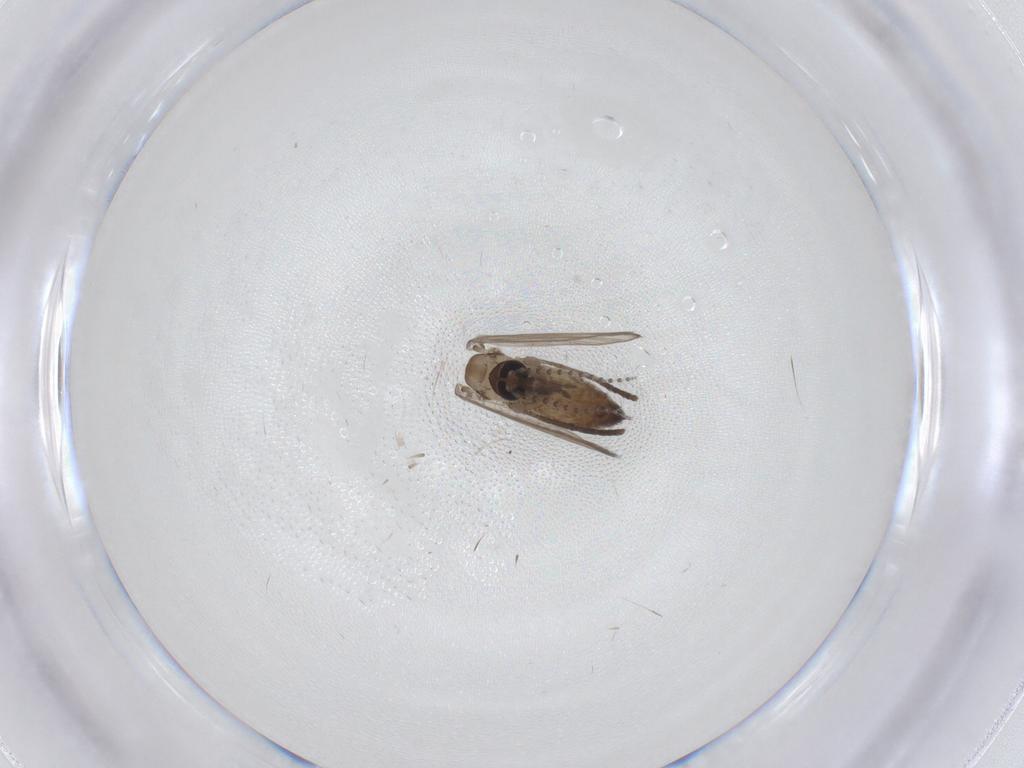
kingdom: Animalia
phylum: Arthropoda
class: Insecta
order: Diptera
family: Psychodidae
